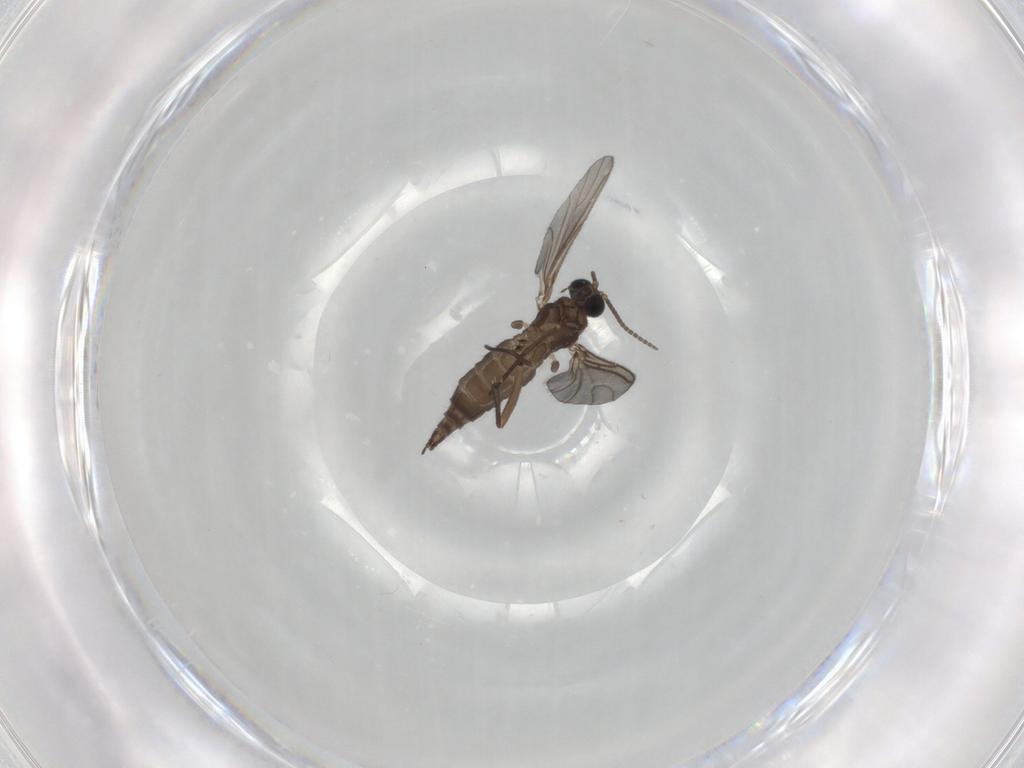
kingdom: Animalia
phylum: Arthropoda
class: Insecta
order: Diptera
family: Sciaridae
